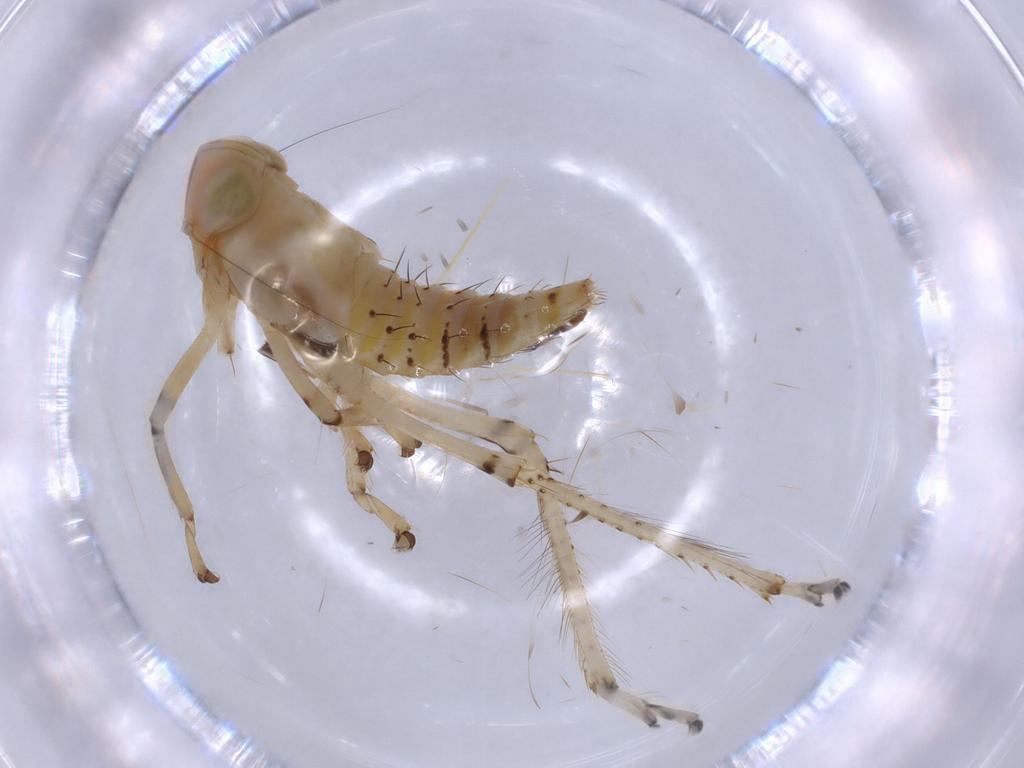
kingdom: Animalia
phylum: Arthropoda
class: Insecta
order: Hemiptera
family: Cicadellidae
